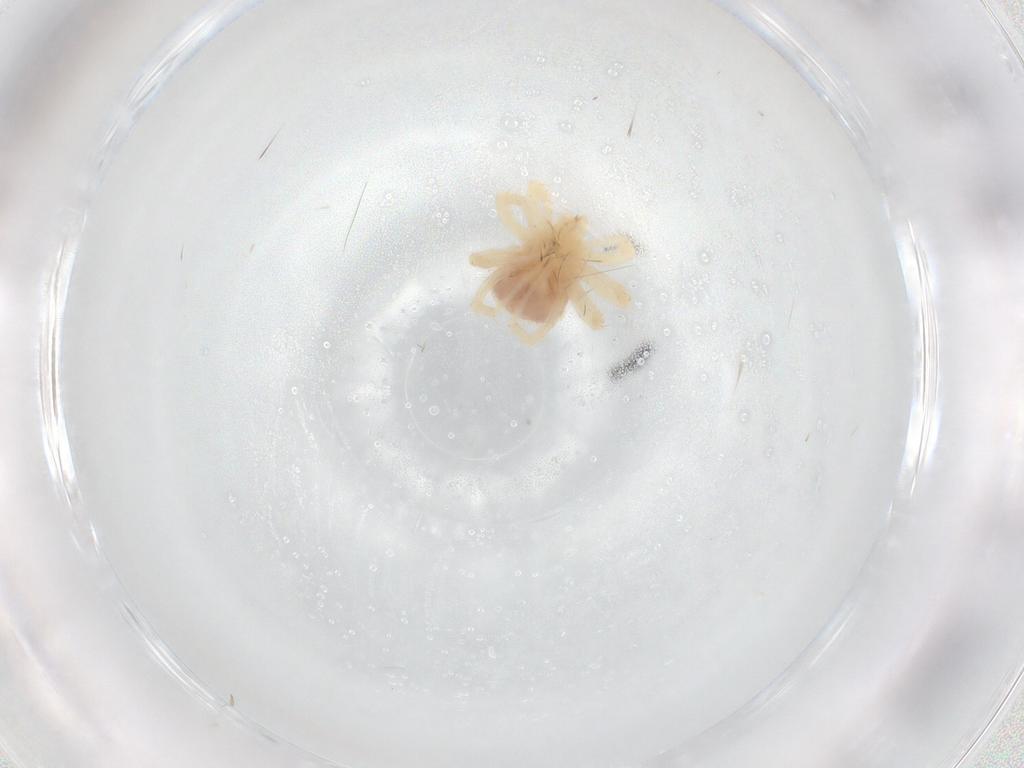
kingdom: Animalia
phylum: Arthropoda
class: Arachnida
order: Trombidiformes
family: Anystidae
